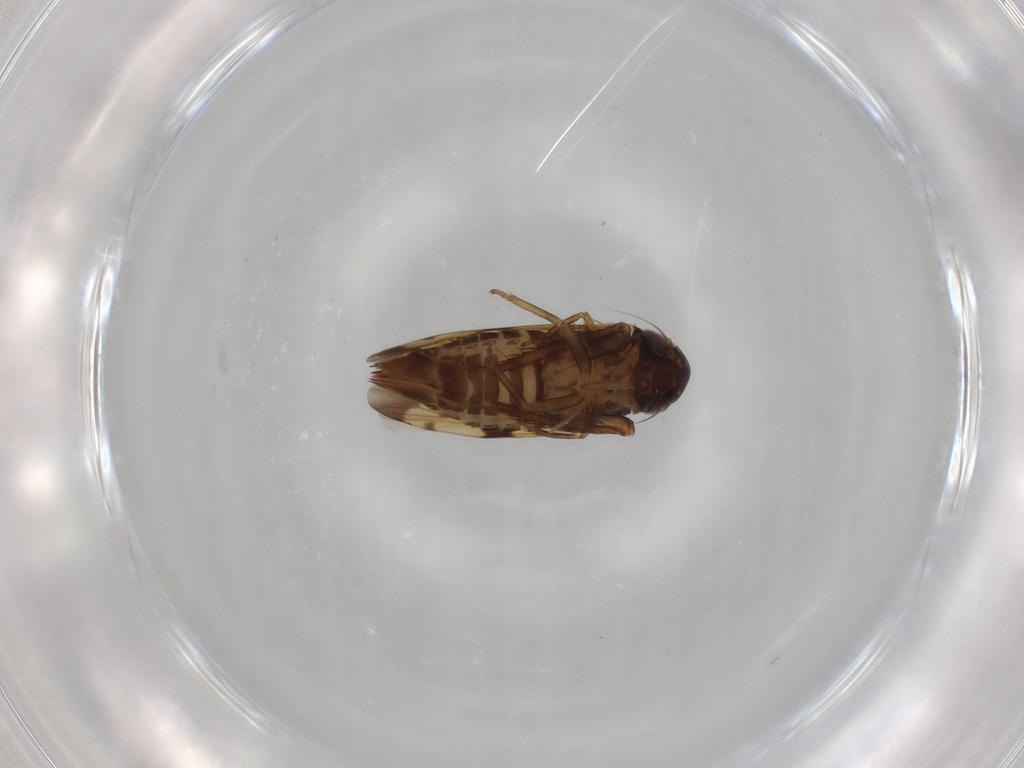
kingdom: Animalia
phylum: Arthropoda
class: Insecta
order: Hemiptera
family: Cicadellidae
